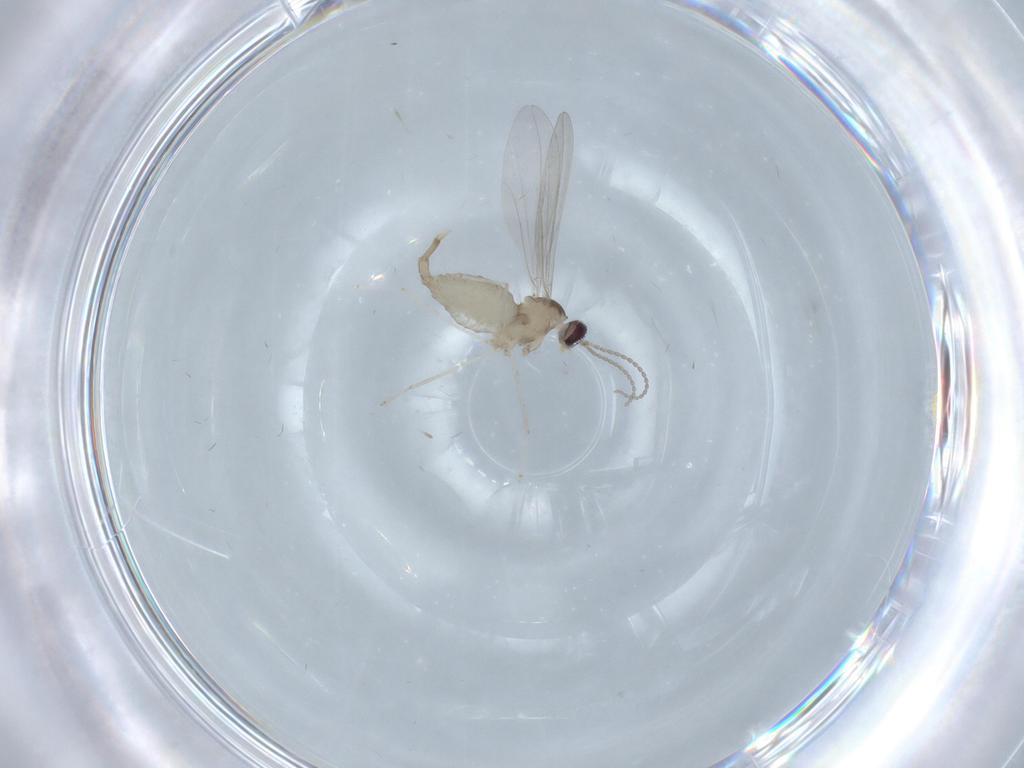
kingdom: Animalia
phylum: Arthropoda
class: Insecta
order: Diptera
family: Cecidomyiidae
